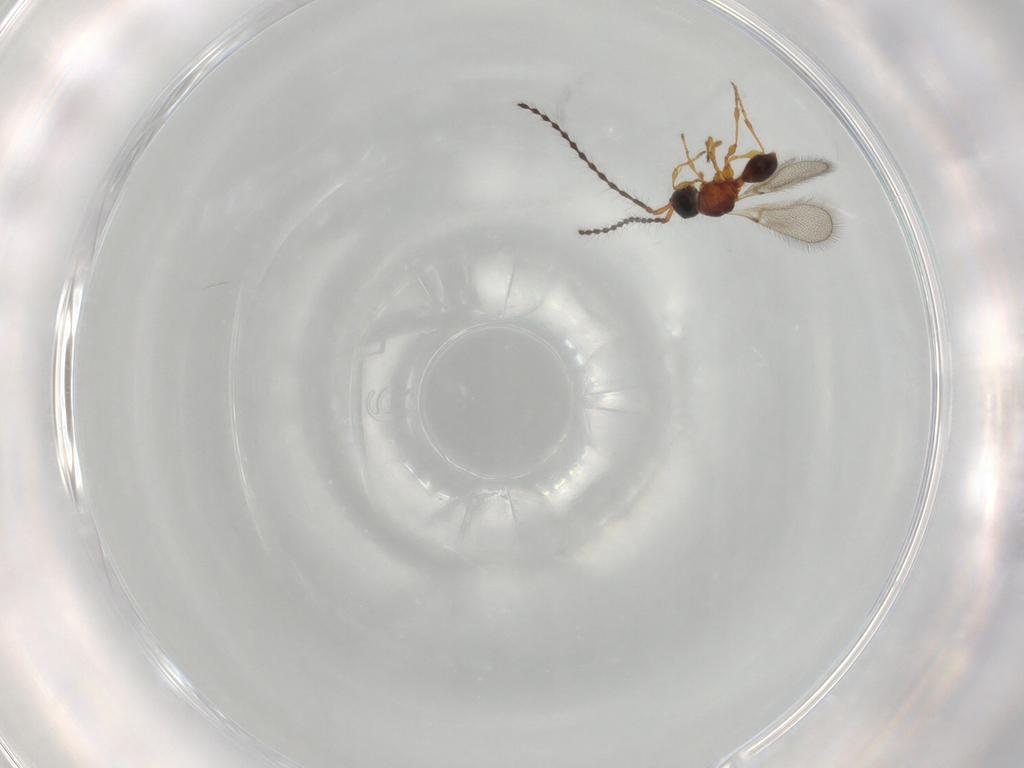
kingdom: Animalia
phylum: Arthropoda
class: Insecta
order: Hymenoptera
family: Diapriidae
